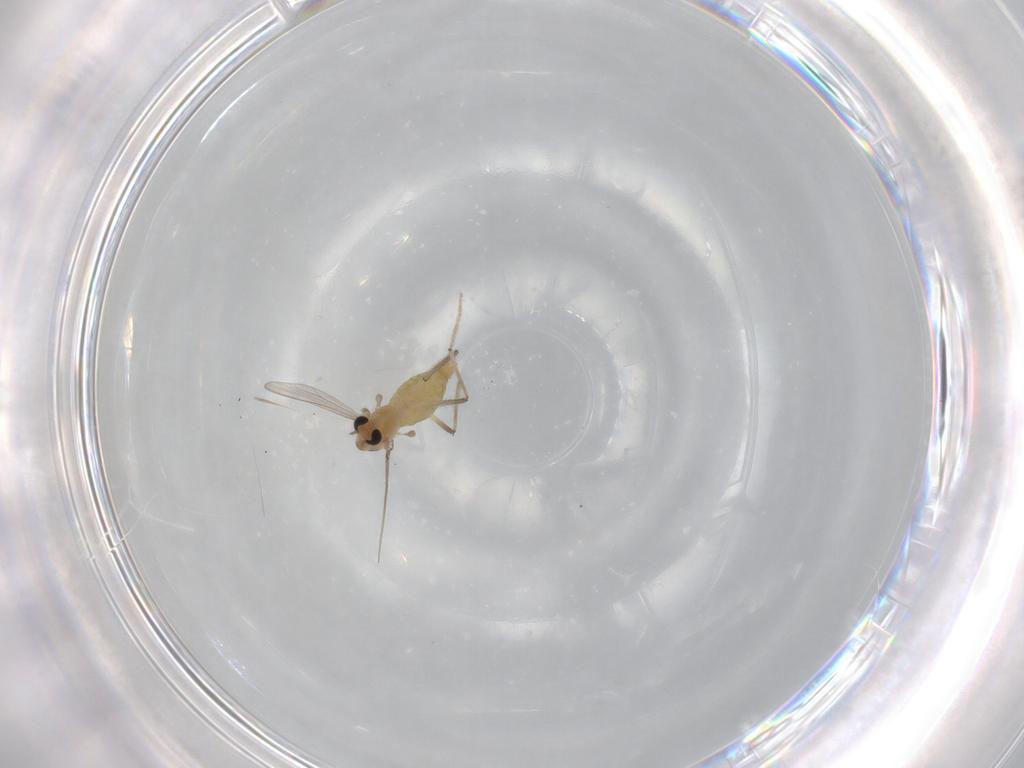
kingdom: Animalia
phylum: Arthropoda
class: Insecta
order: Diptera
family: Chironomidae
